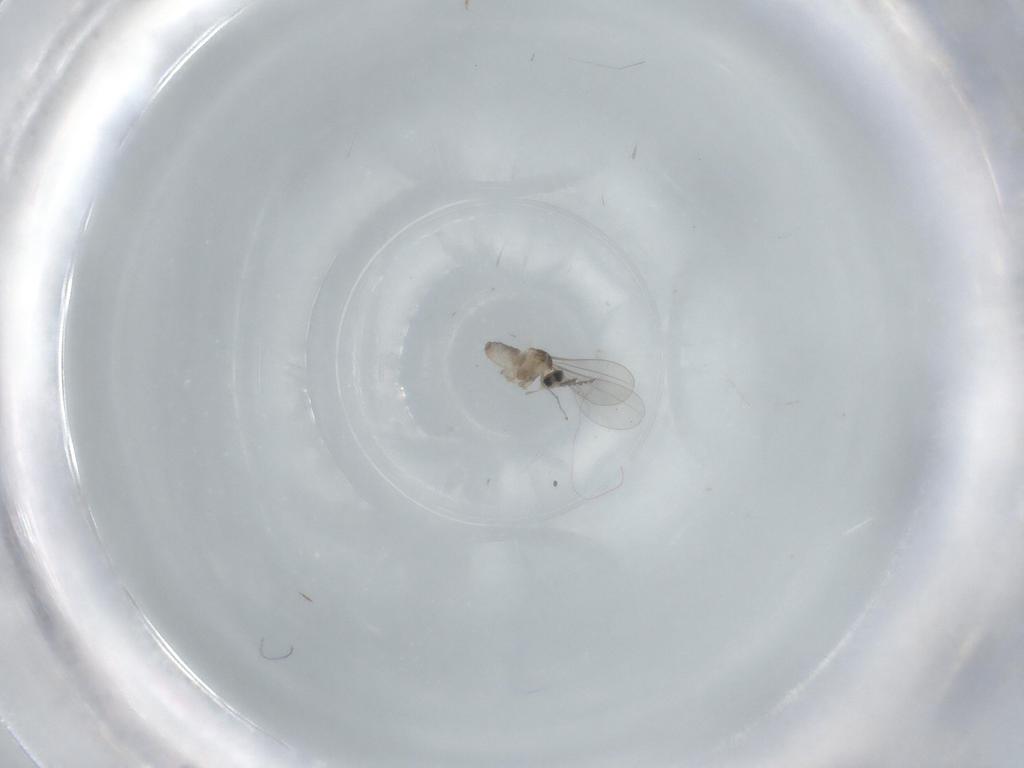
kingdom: Animalia
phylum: Arthropoda
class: Insecta
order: Diptera
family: Cecidomyiidae
